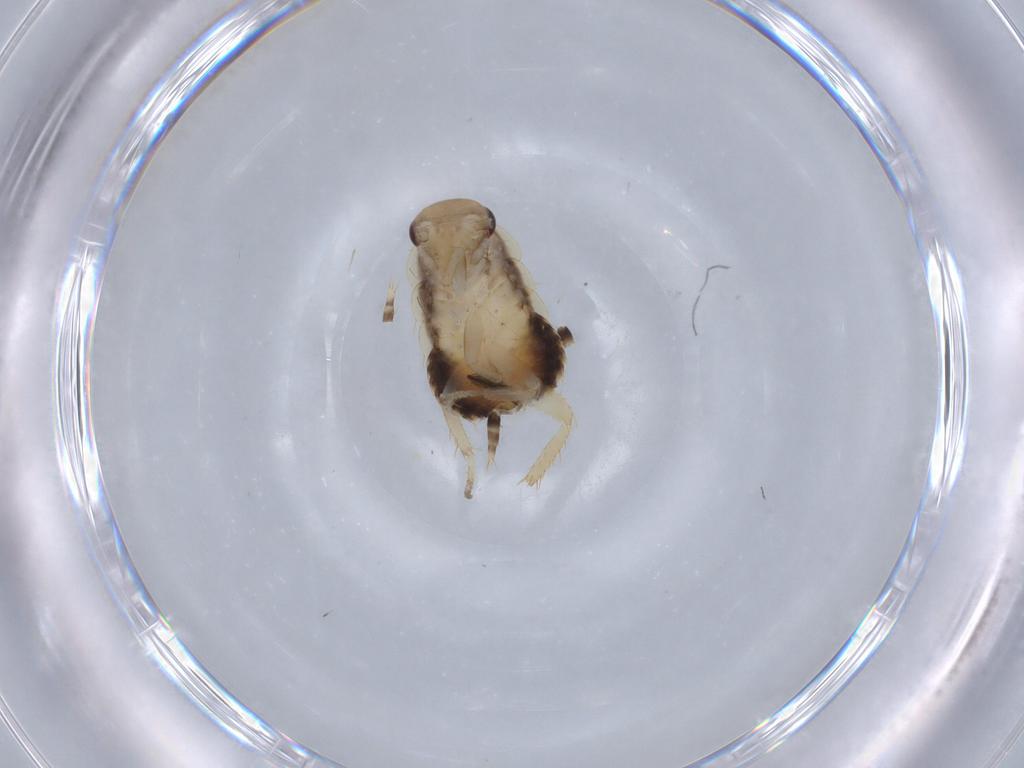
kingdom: Animalia
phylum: Arthropoda
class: Insecta
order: Blattodea
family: Ectobiidae
